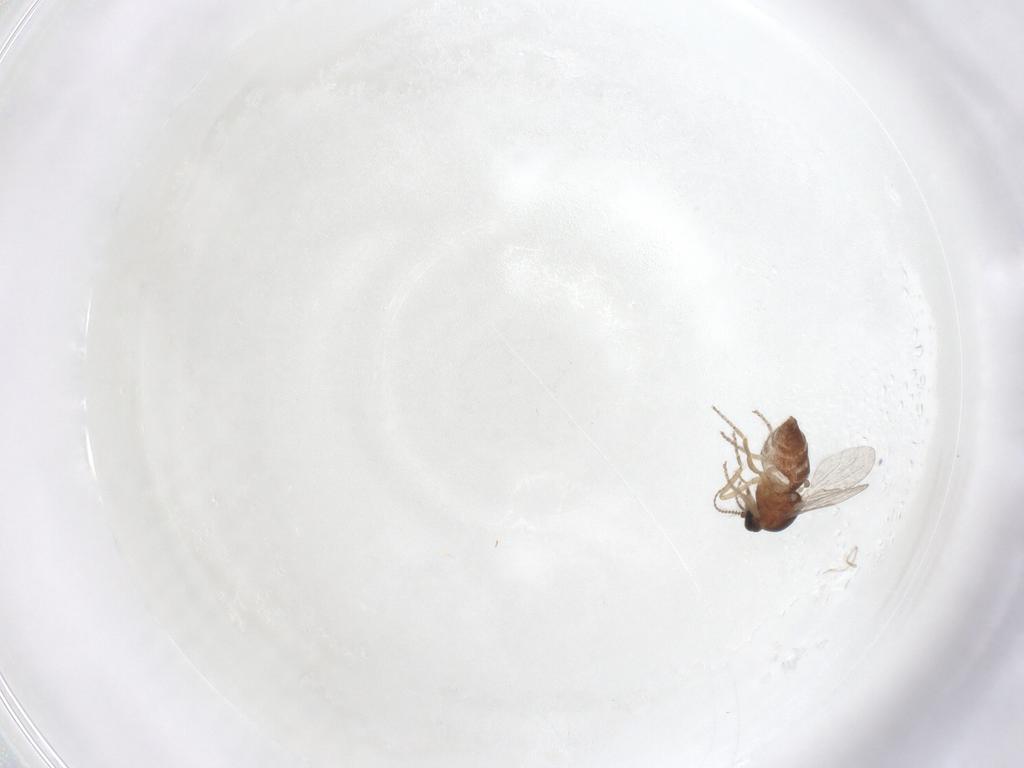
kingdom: Animalia
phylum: Arthropoda
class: Insecta
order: Diptera
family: Ceratopogonidae
